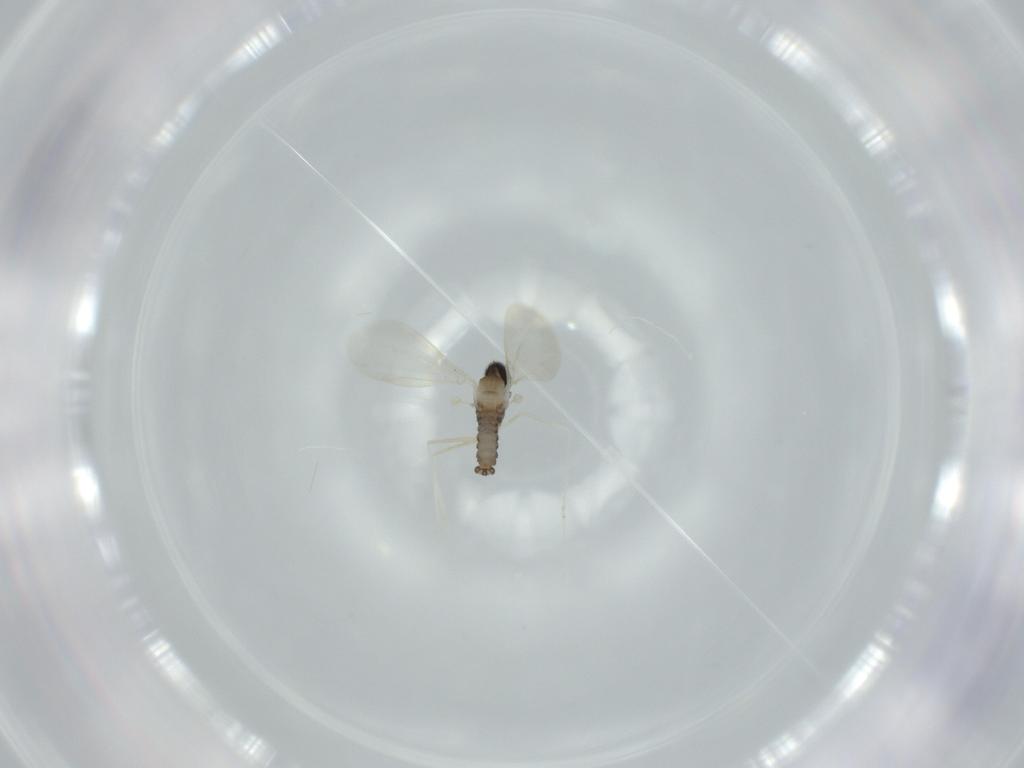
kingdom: Animalia
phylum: Arthropoda
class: Insecta
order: Diptera
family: Cecidomyiidae
